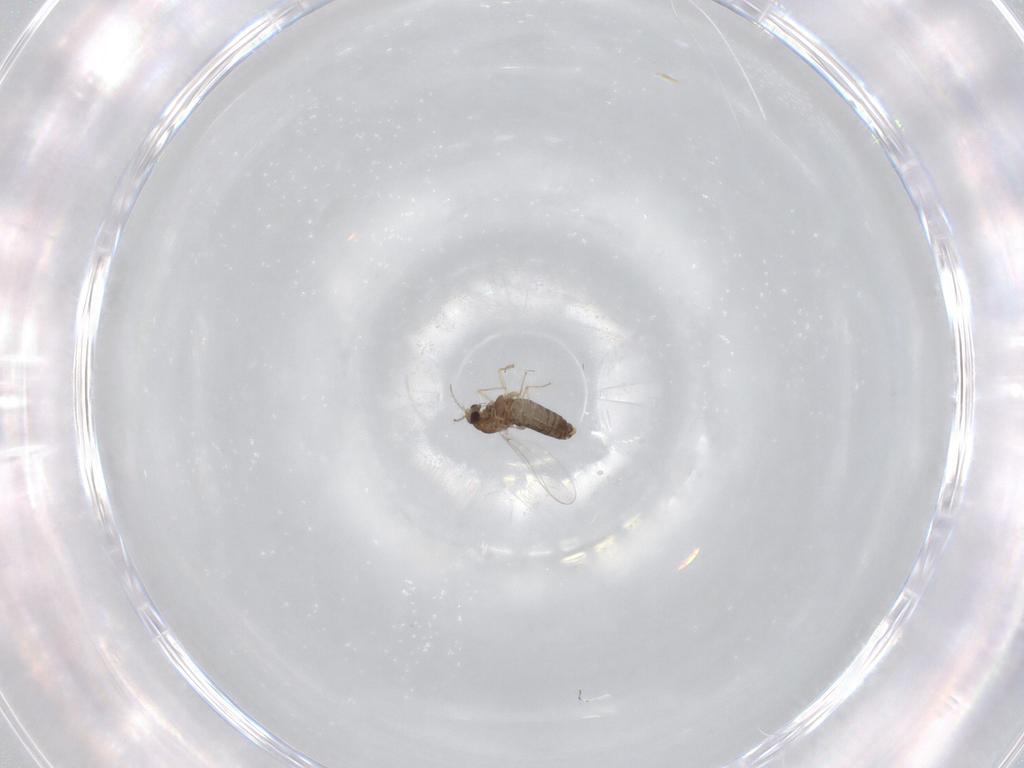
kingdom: Animalia
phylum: Arthropoda
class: Insecta
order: Diptera
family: Chironomidae
